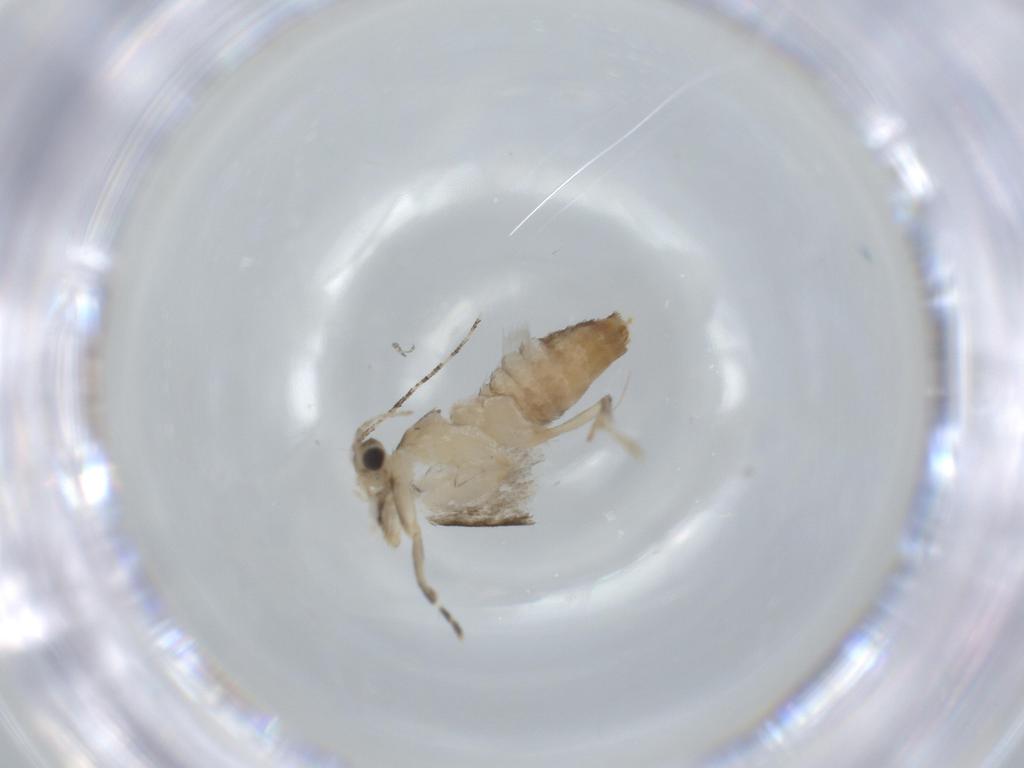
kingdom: Animalia
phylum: Arthropoda
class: Insecta
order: Lepidoptera
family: Tineidae
